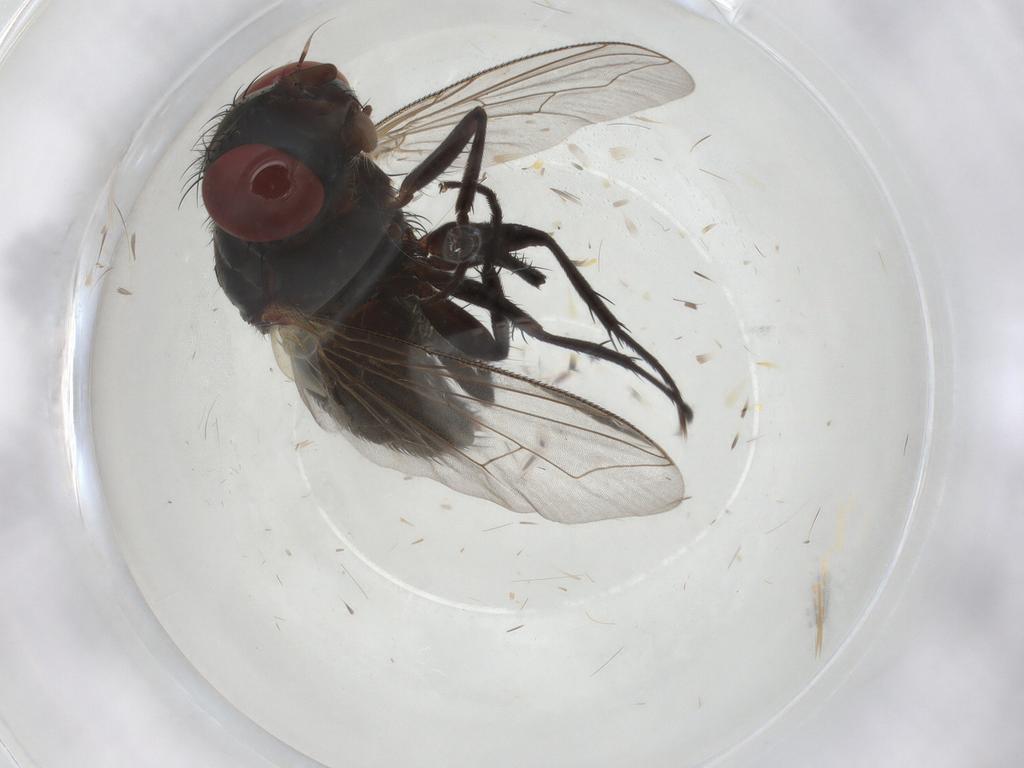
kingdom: Animalia
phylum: Arthropoda
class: Insecta
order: Diptera
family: Sarcophagidae
